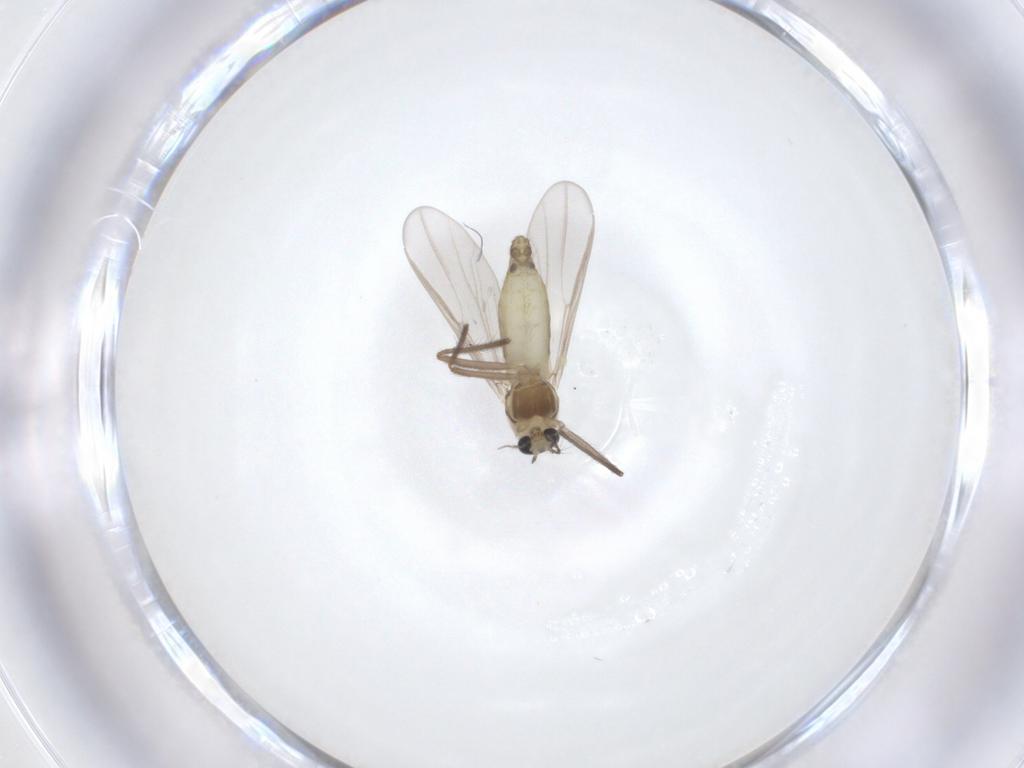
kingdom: Animalia
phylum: Arthropoda
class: Insecta
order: Diptera
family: Chironomidae
